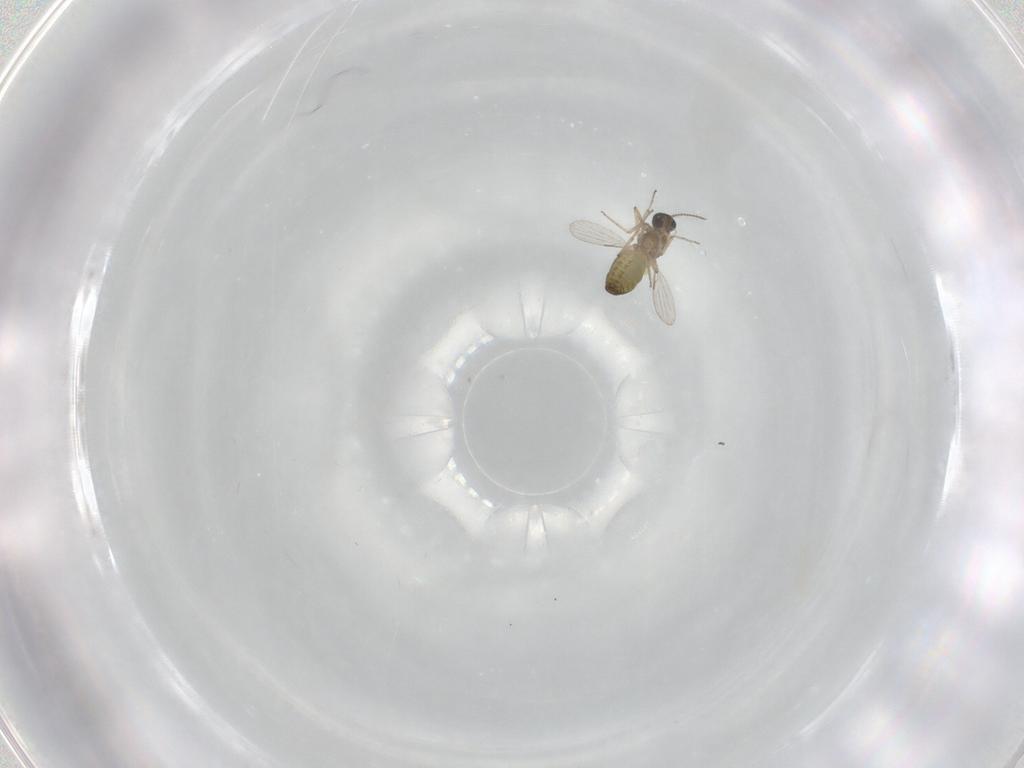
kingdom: Animalia
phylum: Arthropoda
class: Insecta
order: Diptera
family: Ceratopogonidae
